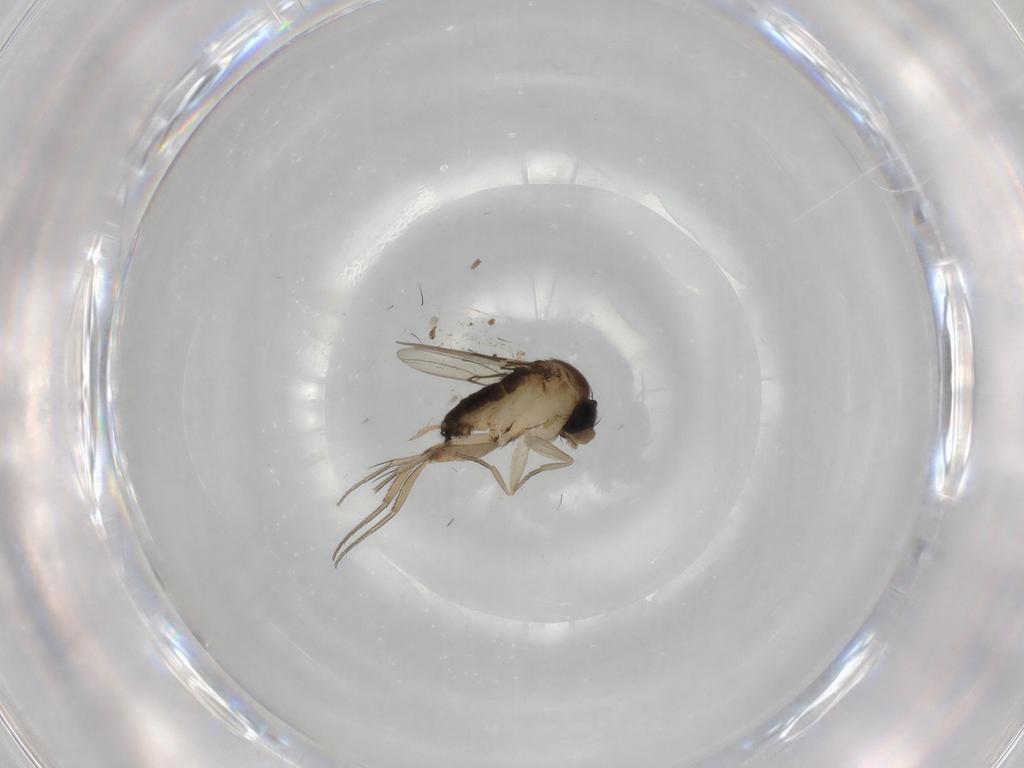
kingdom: Animalia
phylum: Arthropoda
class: Insecta
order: Diptera
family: Phoridae
